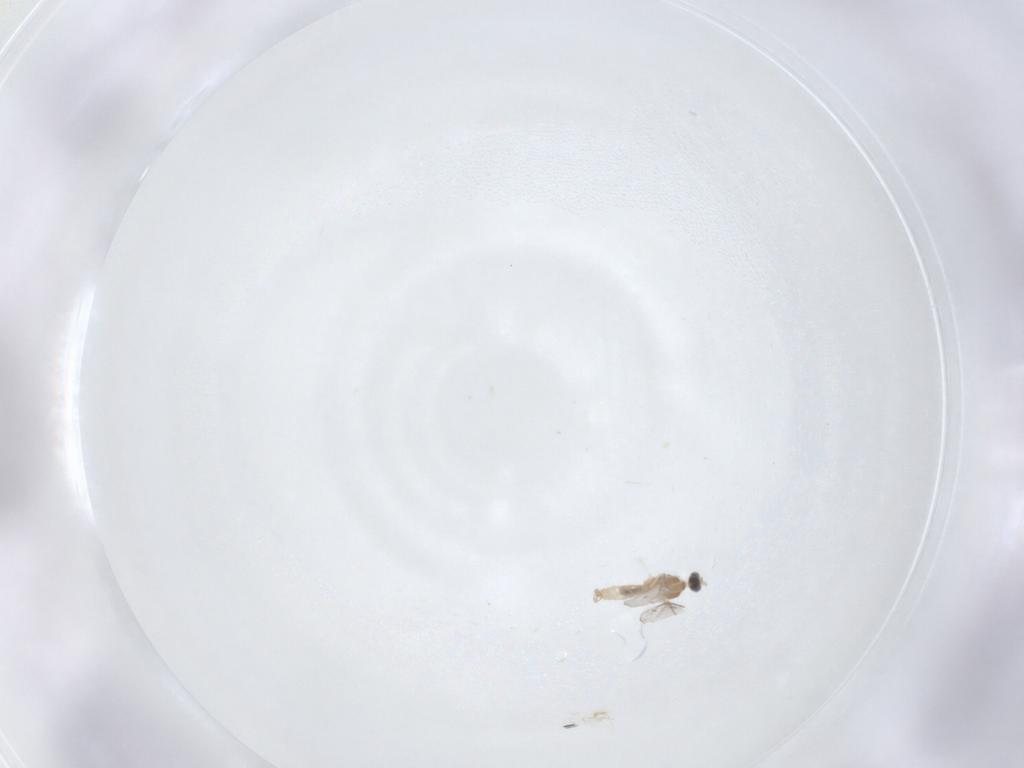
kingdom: Animalia
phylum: Arthropoda
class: Insecta
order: Diptera
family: Cecidomyiidae
